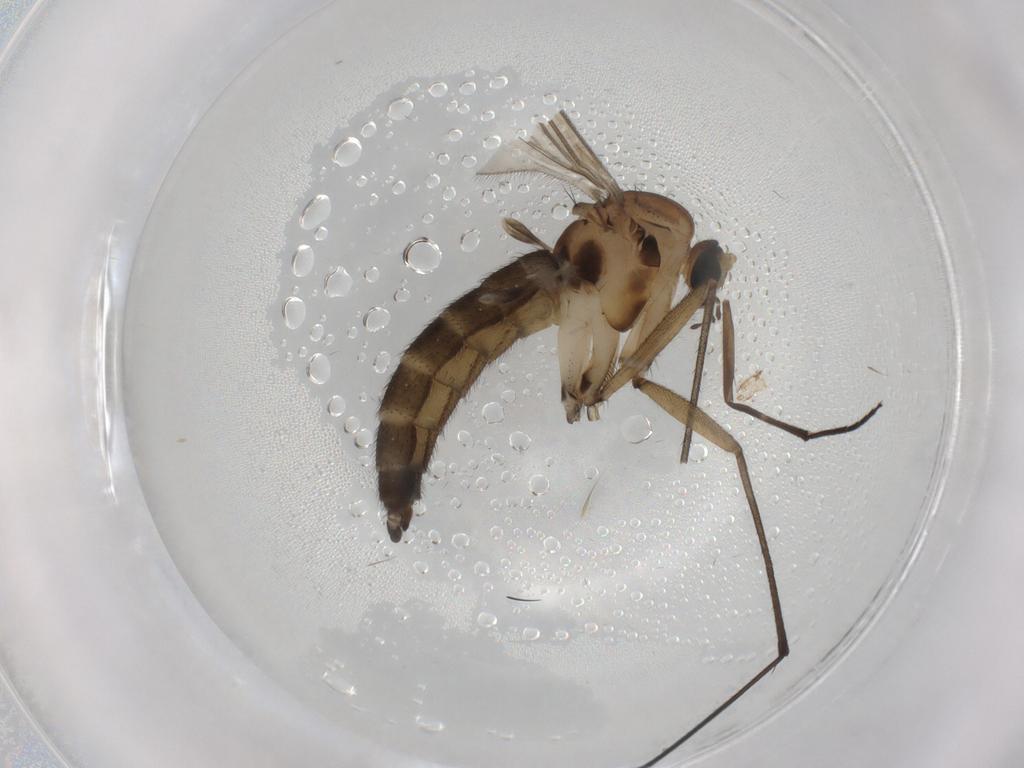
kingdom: Animalia
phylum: Arthropoda
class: Insecta
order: Diptera
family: Sciaridae
